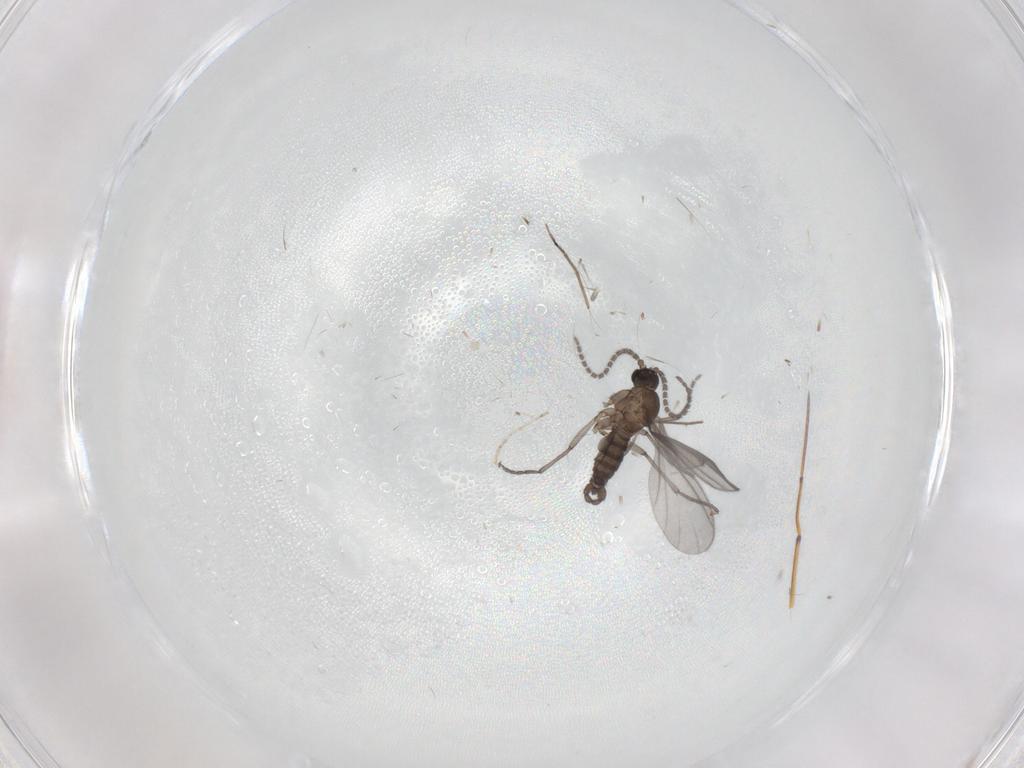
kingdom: Animalia
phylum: Arthropoda
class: Insecta
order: Diptera
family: Sciaridae
